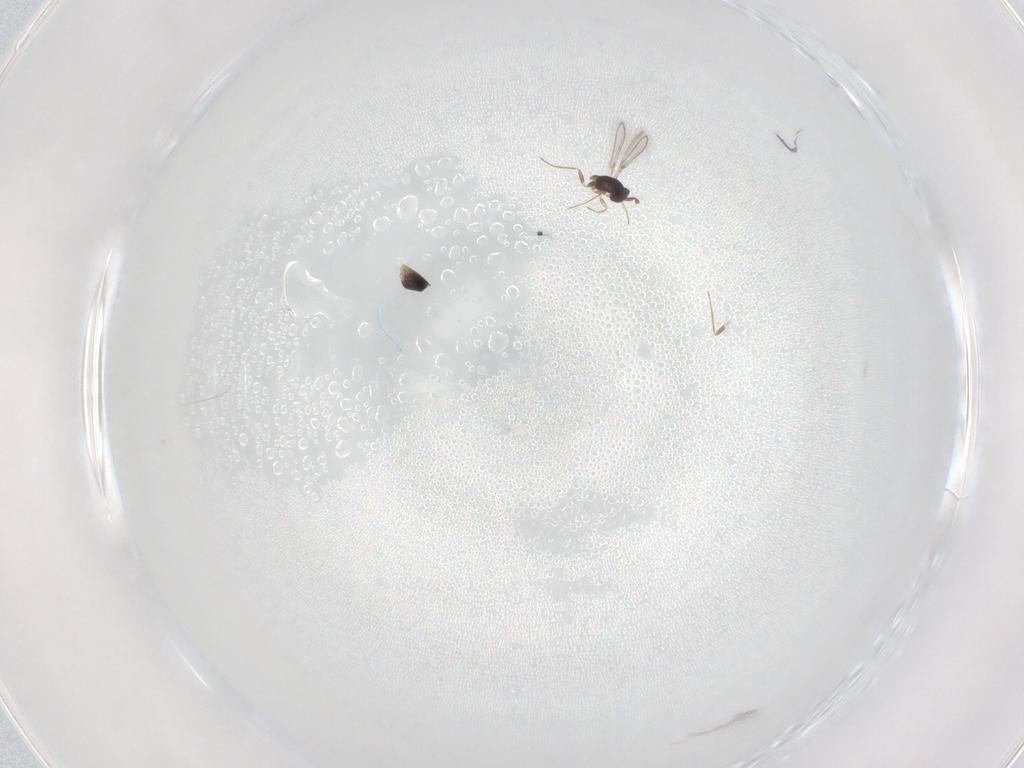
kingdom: Animalia
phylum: Arthropoda
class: Insecta
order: Hymenoptera
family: Mymaridae
